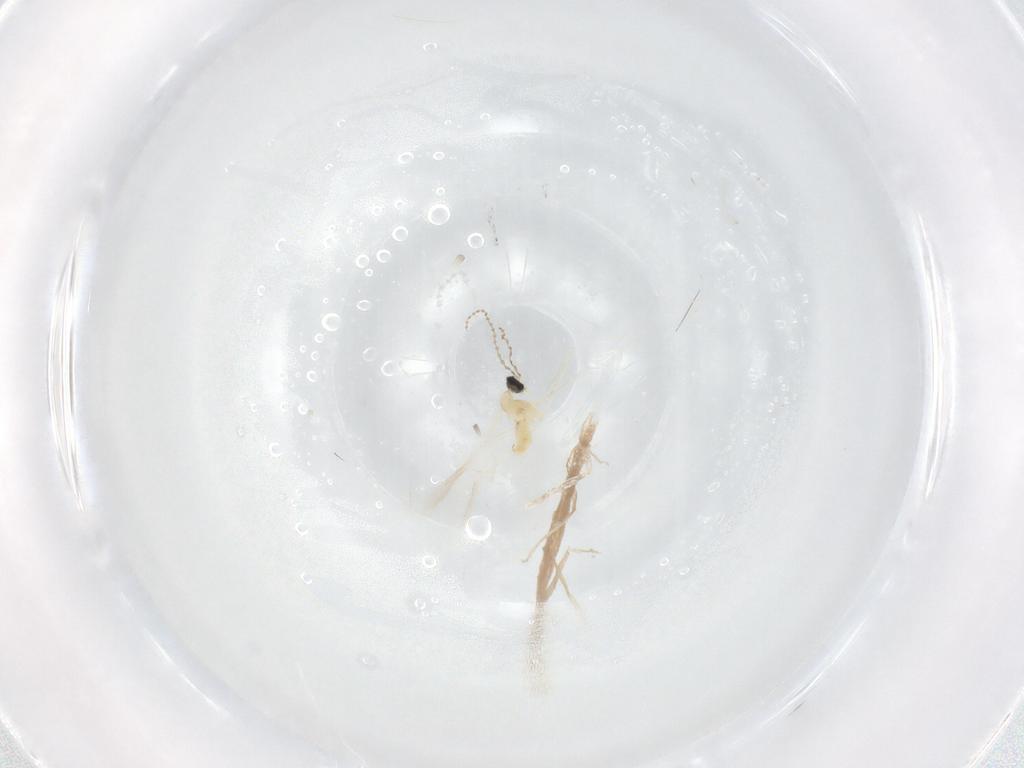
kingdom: Animalia
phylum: Arthropoda
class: Insecta
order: Diptera
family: Cecidomyiidae
